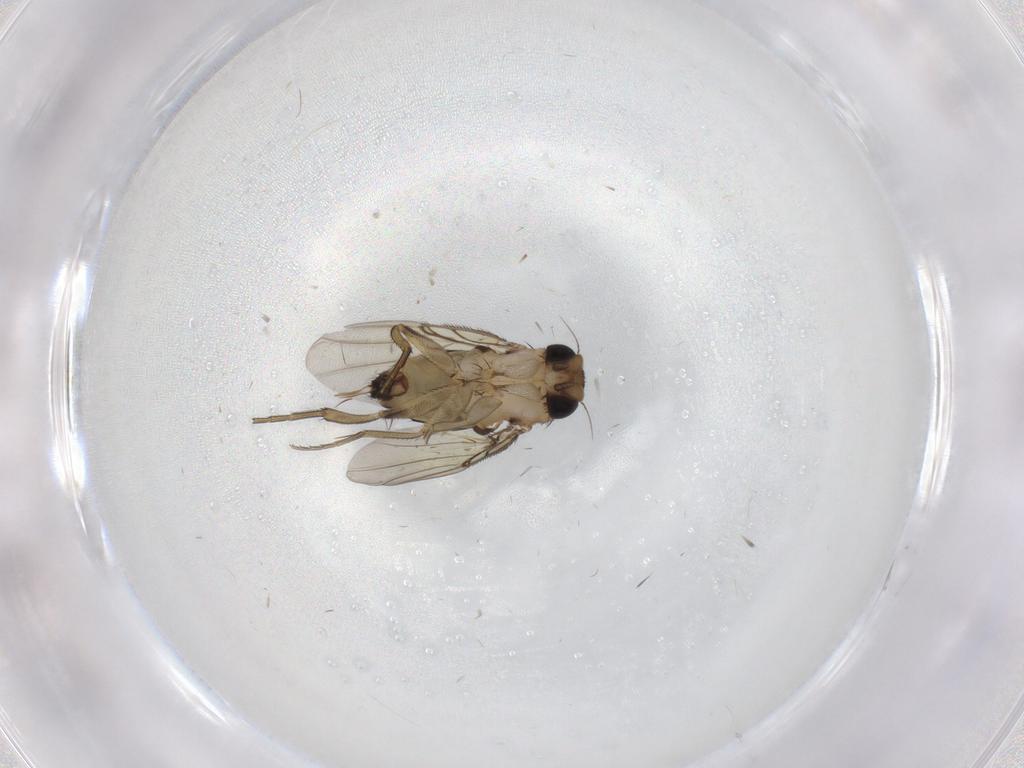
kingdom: Animalia
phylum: Arthropoda
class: Insecta
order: Diptera
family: Phoridae
